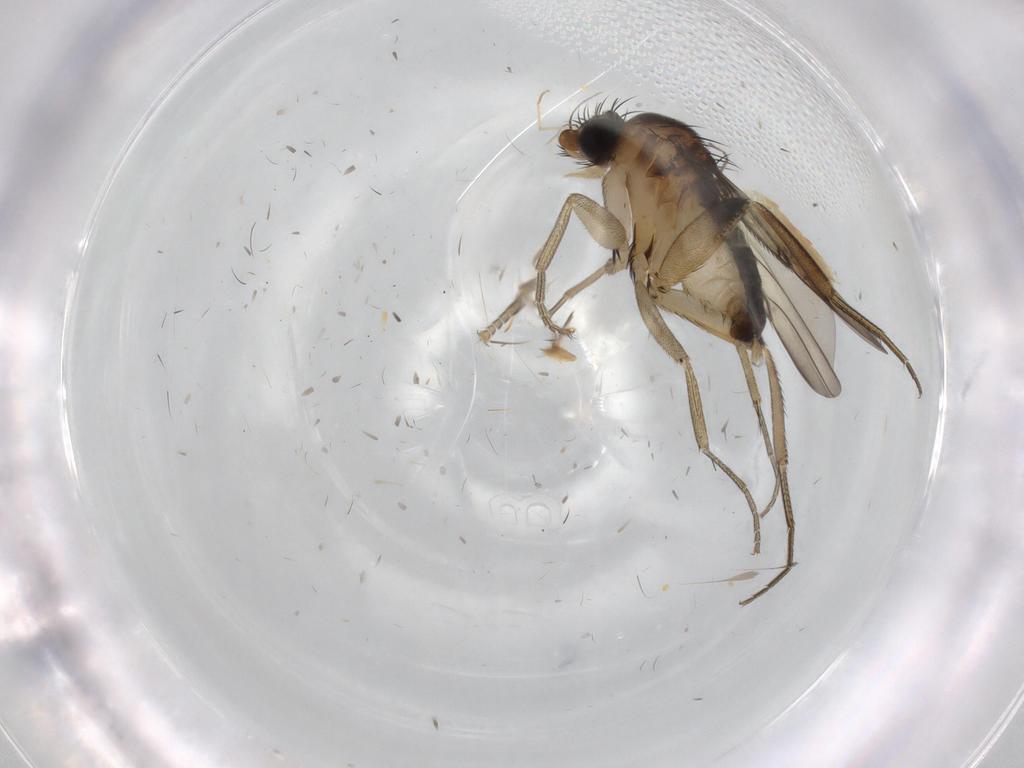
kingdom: Animalia
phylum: Arthropoda
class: Insecta
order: Diptera
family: Phoridae
